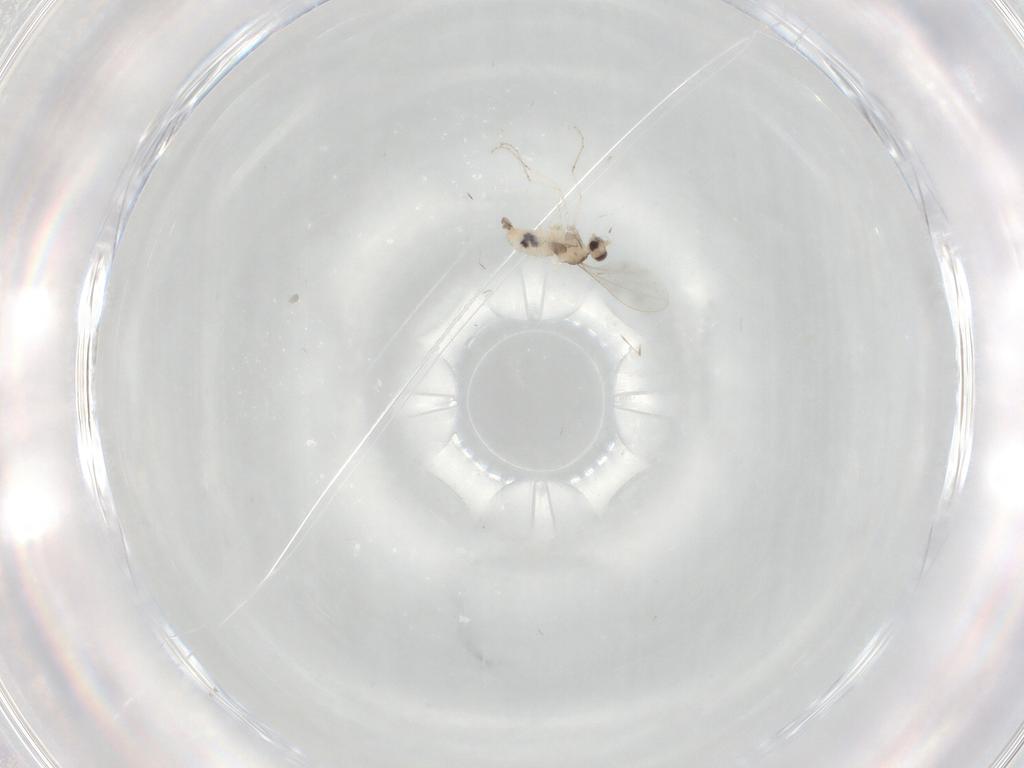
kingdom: Animalia
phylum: Arthropoda
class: Insecta
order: Diptera
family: Cecidomyiidae
